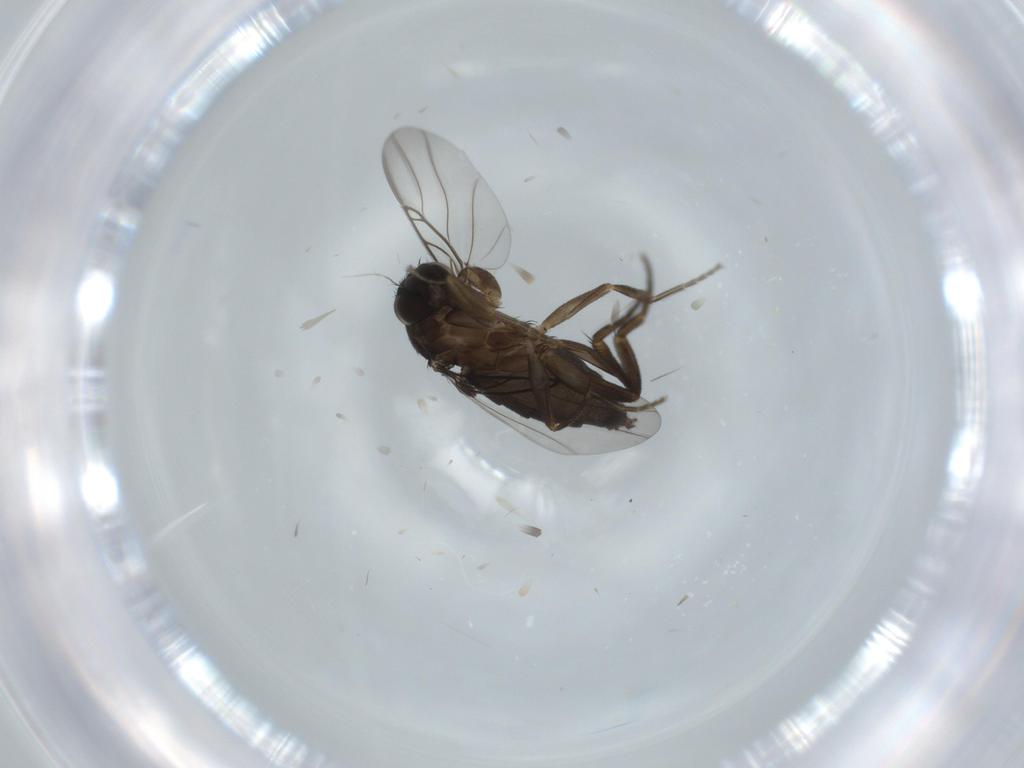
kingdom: Animalia
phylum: Arthropoda
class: Insecta
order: Diptera
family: Phoridae
